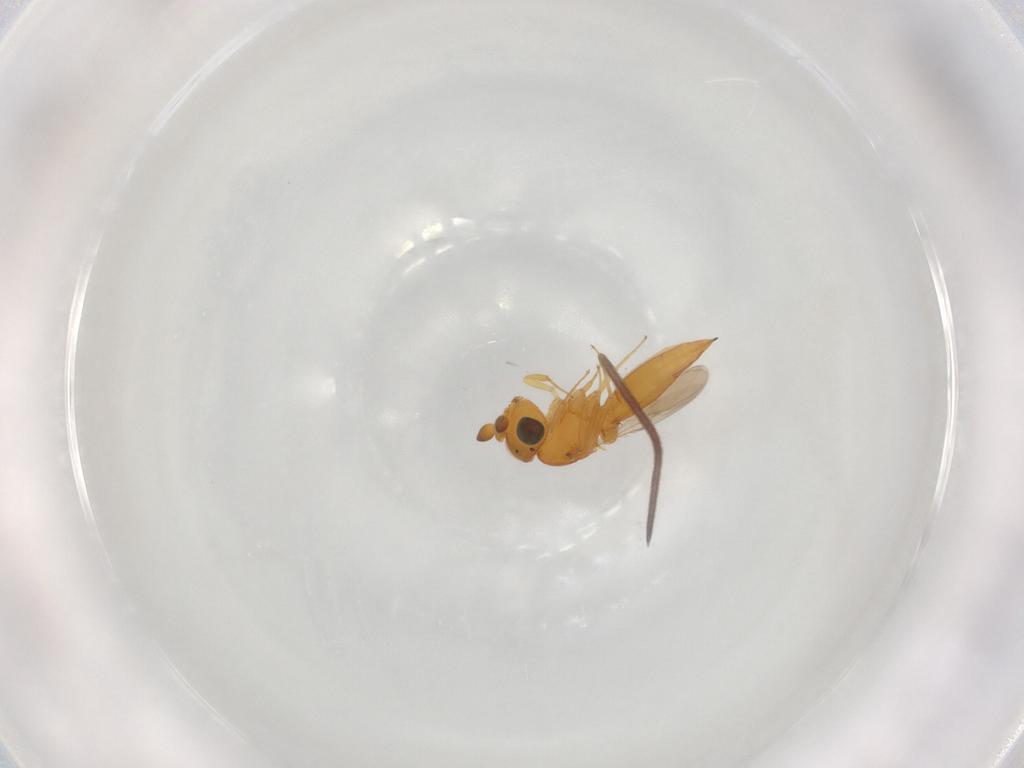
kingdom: Animalia
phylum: Arthropoda
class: Insecta
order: Hymenoptera
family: Scelionidae
